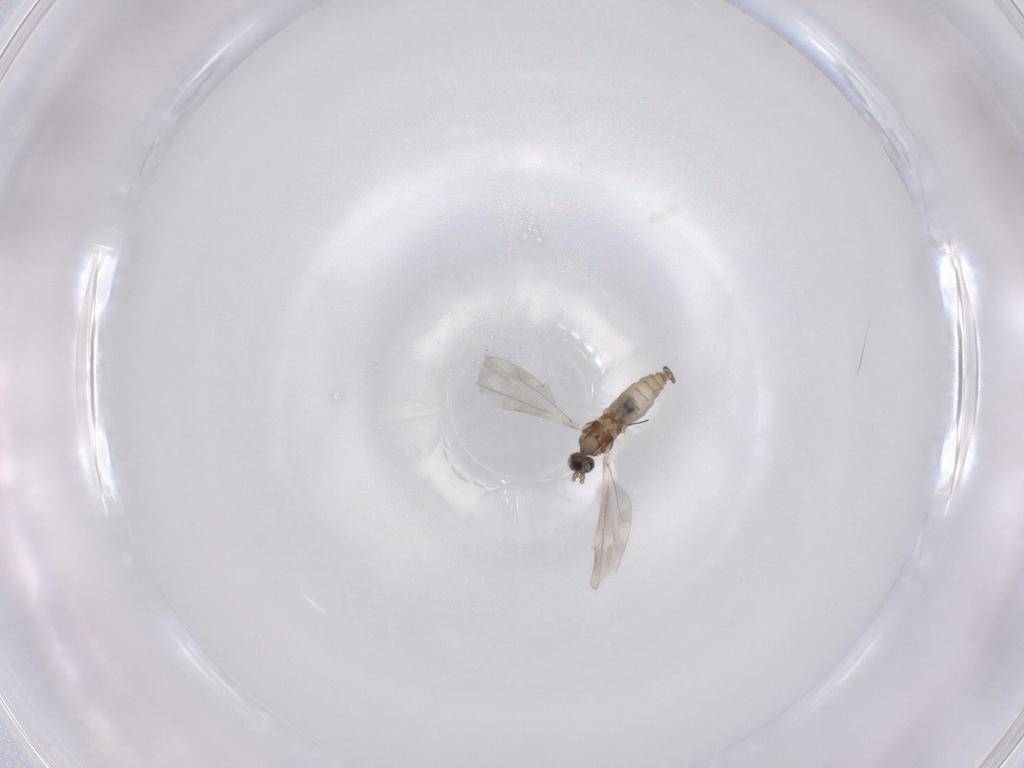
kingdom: Animalia
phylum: Arthropoda
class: Insecta
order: Diptera
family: Cecidomyiidae
